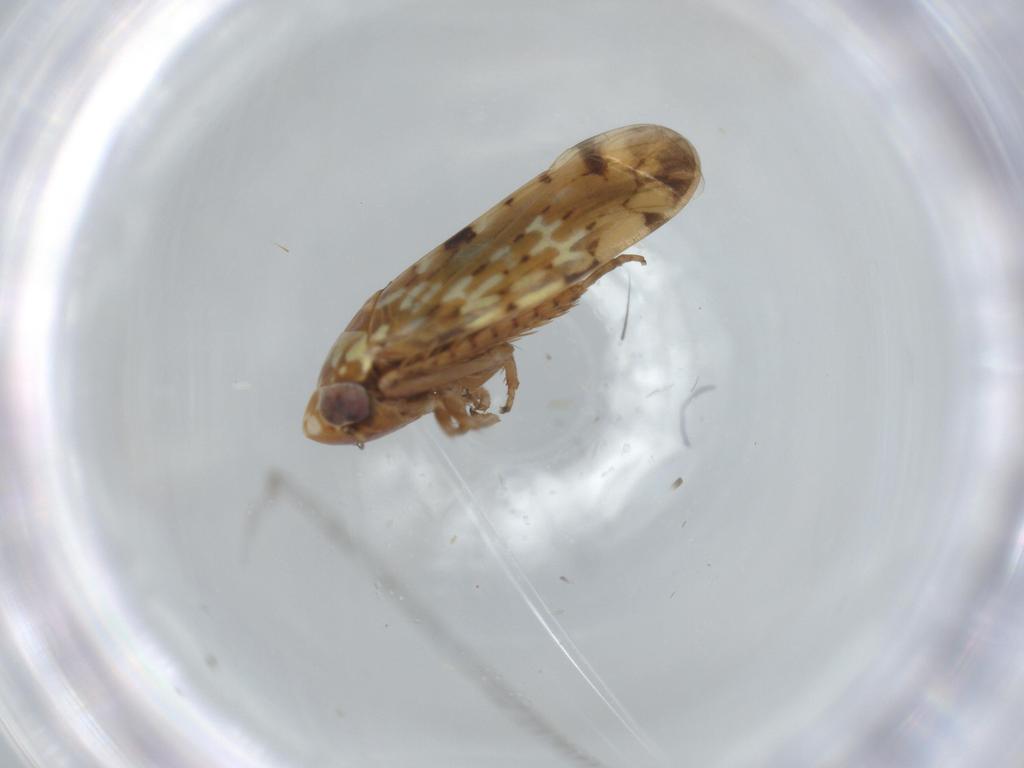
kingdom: Animalia
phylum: Arthropoda
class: Insecta
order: Hemiptera
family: Cicadellidae
